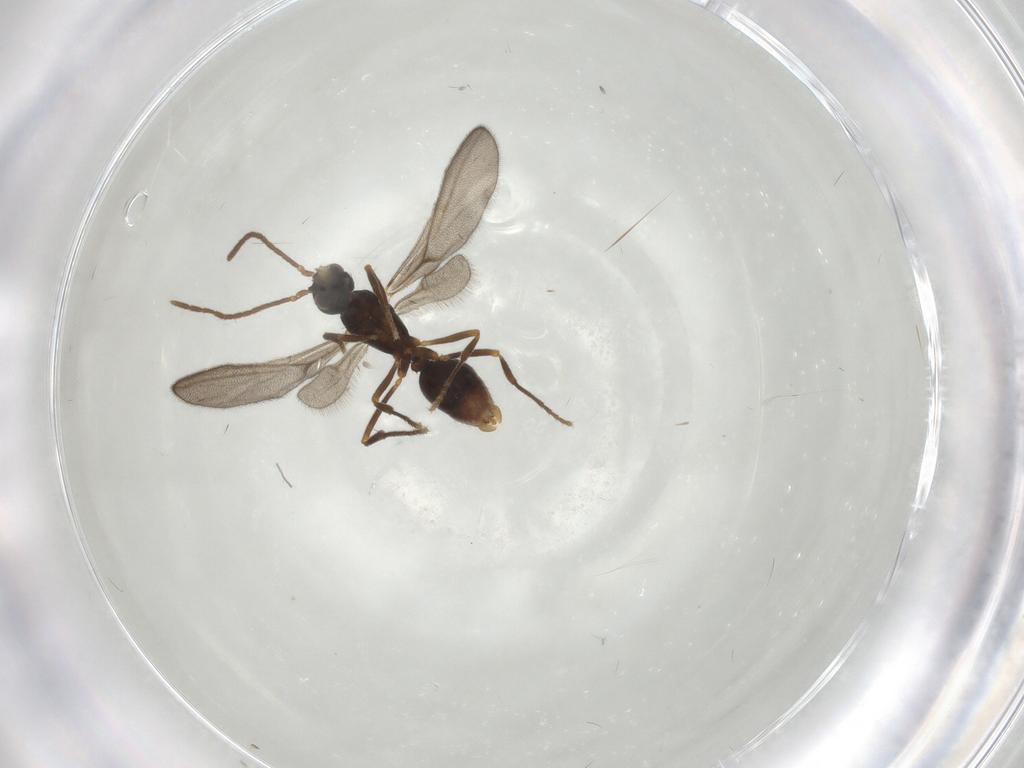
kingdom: Animalia
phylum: Arthropoda
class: Insecta
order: Hymenoptera
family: Formicidae
